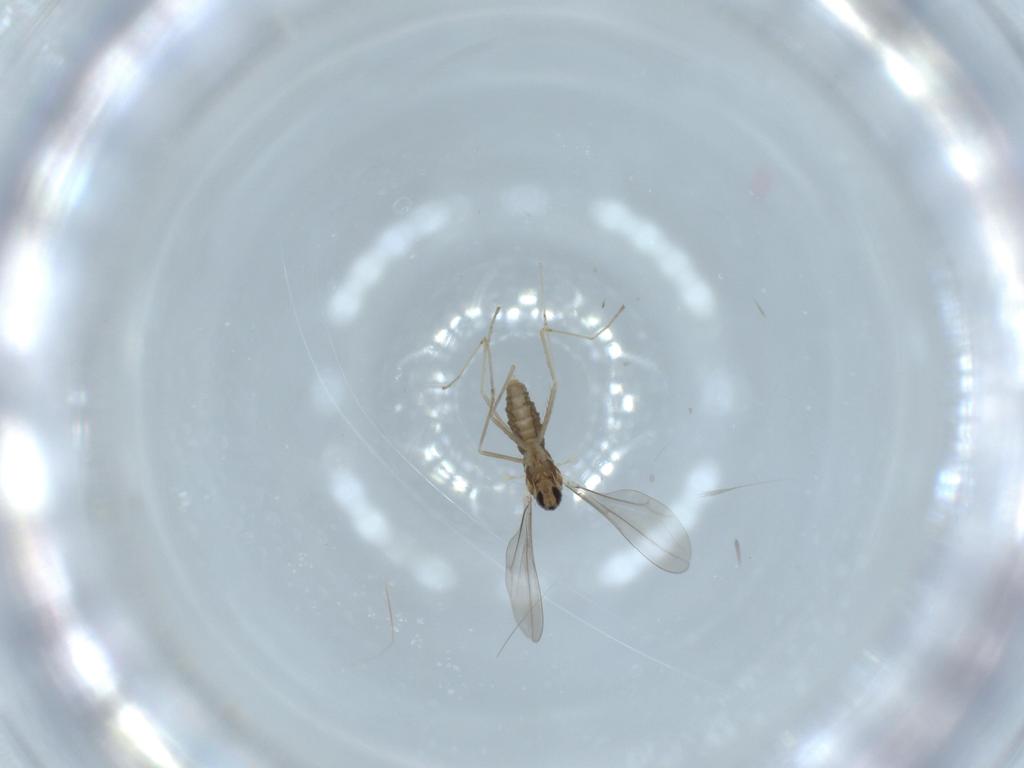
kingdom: Animalia
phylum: Arthropoda
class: Insecta
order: Diptera
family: Cecidomyiidae
